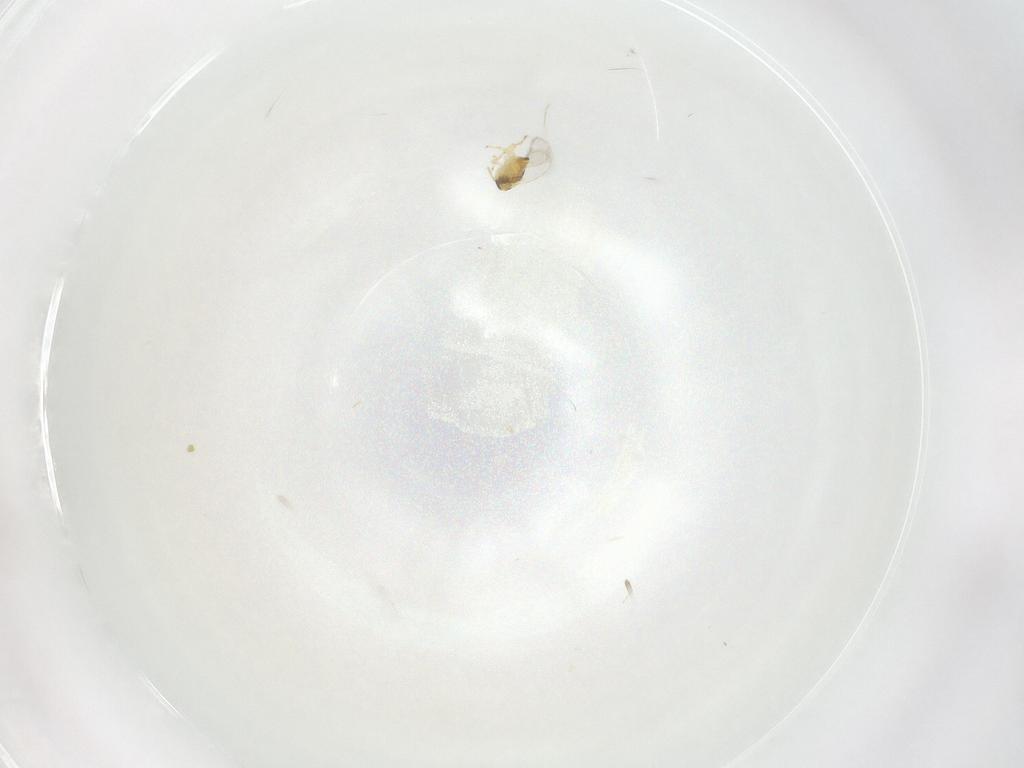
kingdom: Animalia
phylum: Arthropoda
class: Insecta
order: Hymenoptera
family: Aphelinidae
